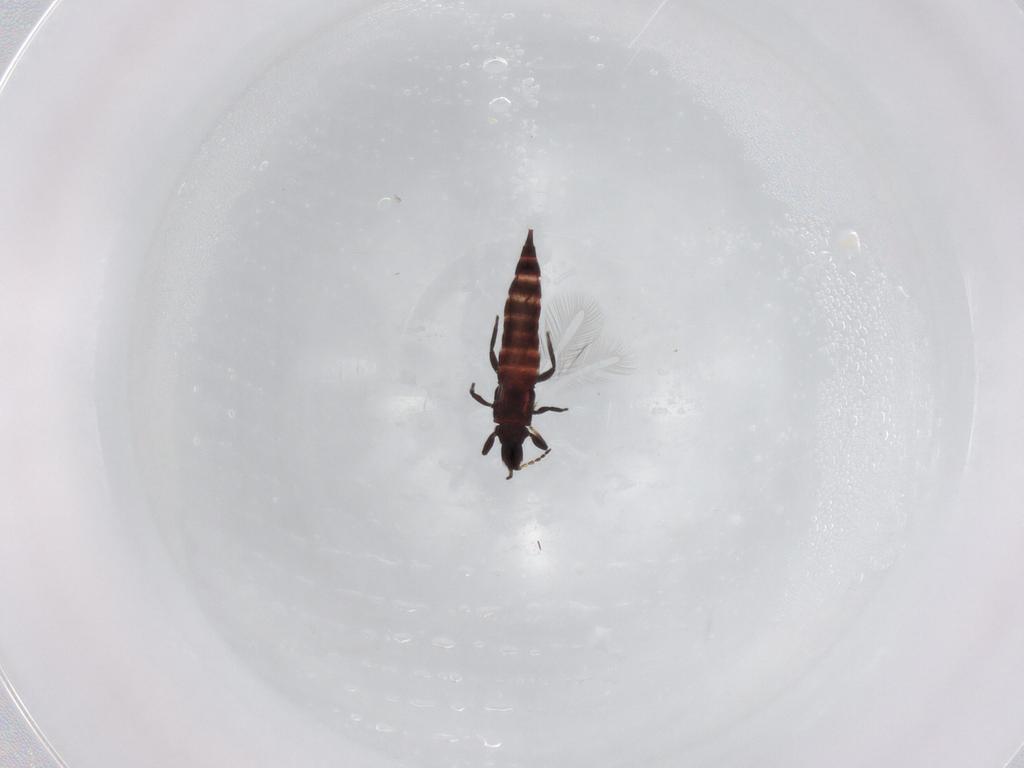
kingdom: Animalia
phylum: Arthropoda
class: Insecta
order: Thysanoptera
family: Phlaeothripidae
